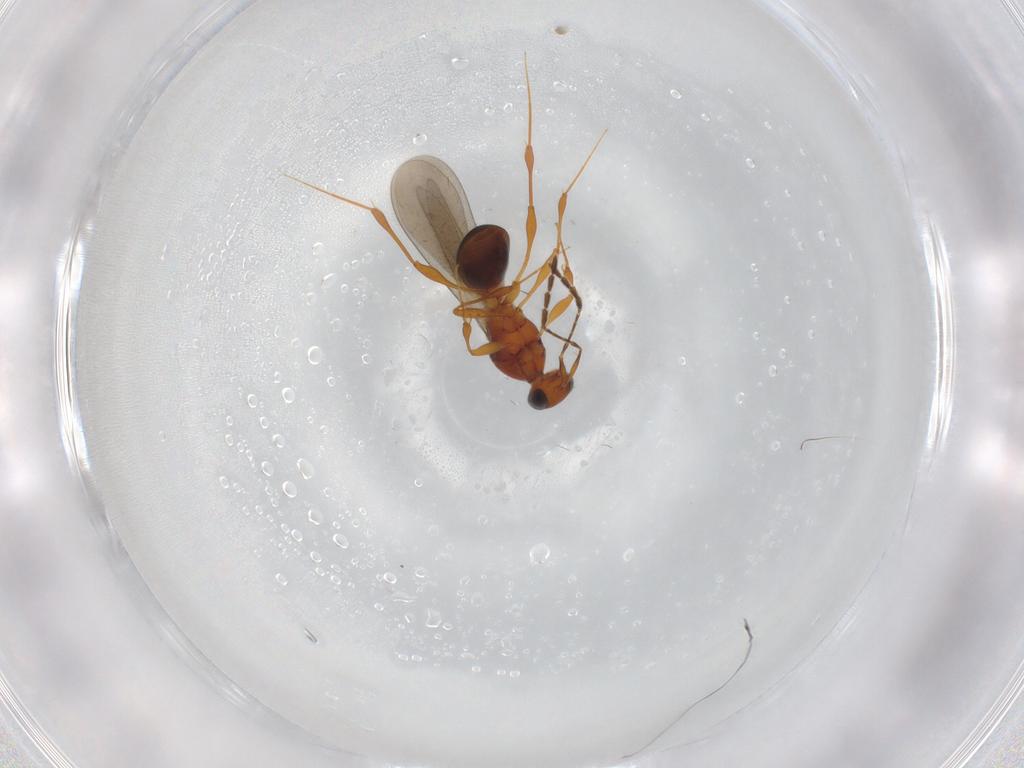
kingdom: Animalia
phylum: Arthropoda
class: Insecta
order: Hymenoptera
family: Platygastridae
